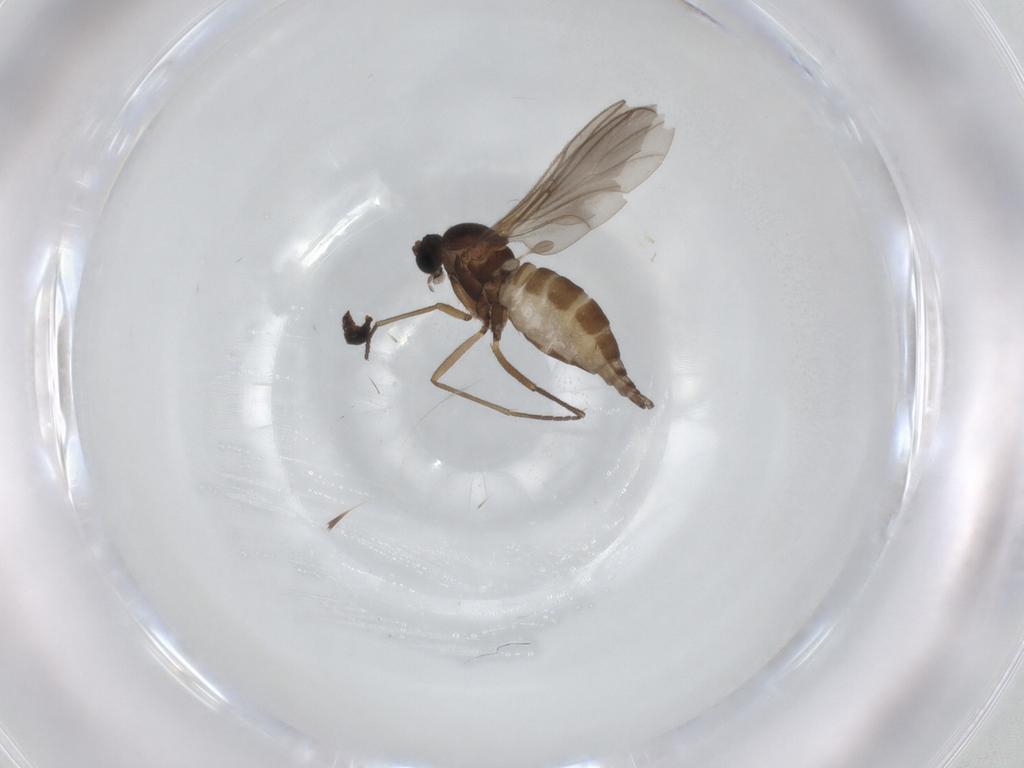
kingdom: Animalia
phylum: Arthropoda
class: Insecta
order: Diptera
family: Sciaridae
